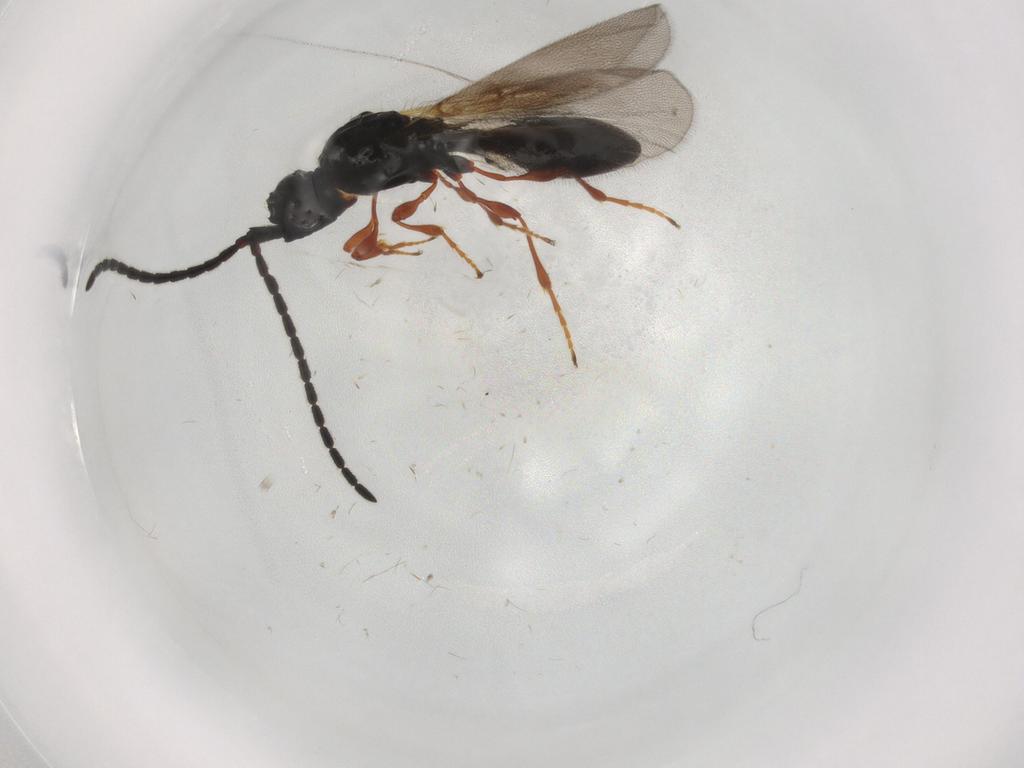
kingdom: Animalia
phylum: Arthropoda
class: Insecta
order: Hymenoptera
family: Diapriidae
